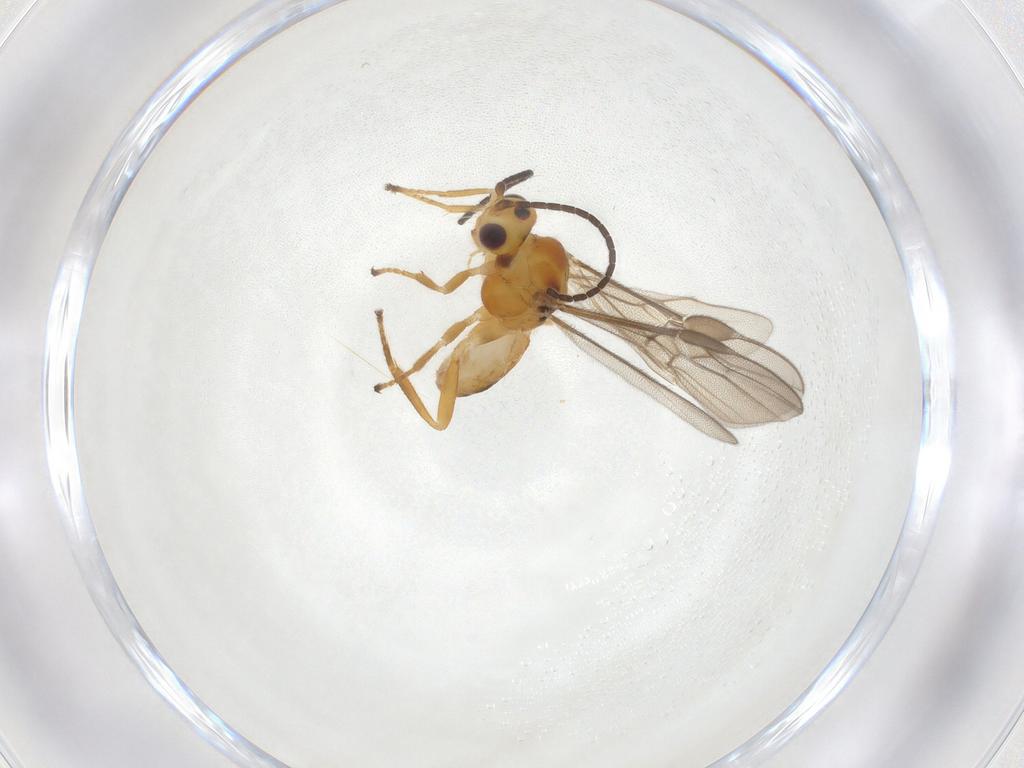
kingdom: Animalia
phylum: Arthropoda
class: Insecta
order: Hymenoptera
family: Braconidae
